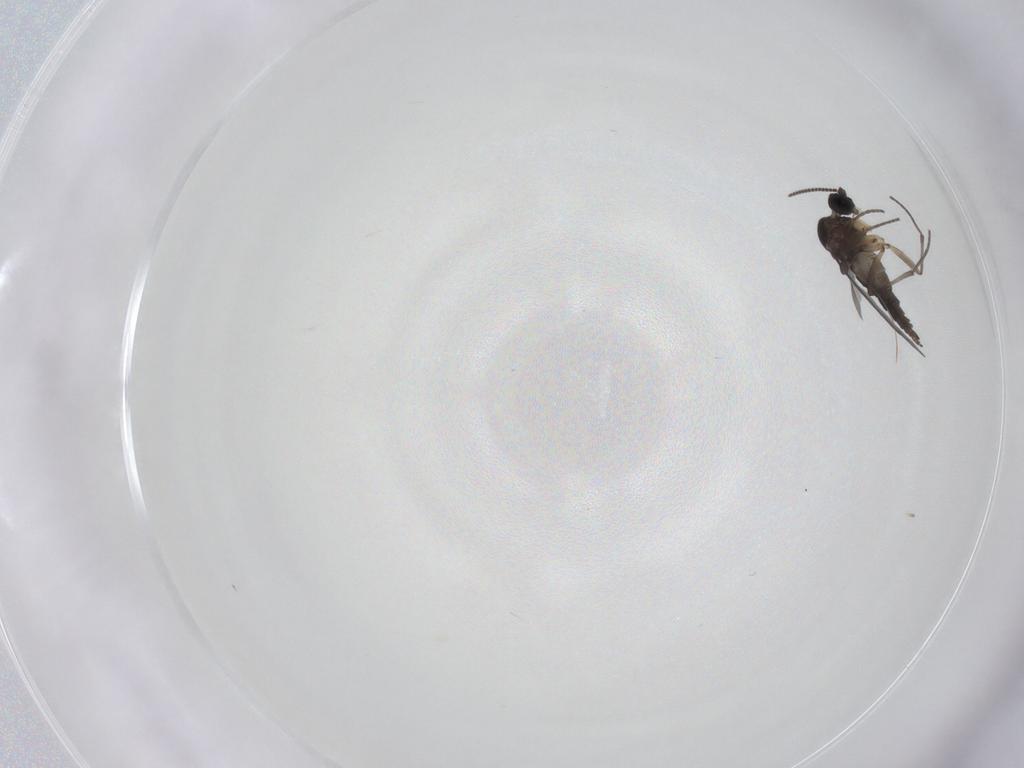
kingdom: Animalia
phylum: Arthropoda
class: Insecta
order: Diptera
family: Sciaridae
